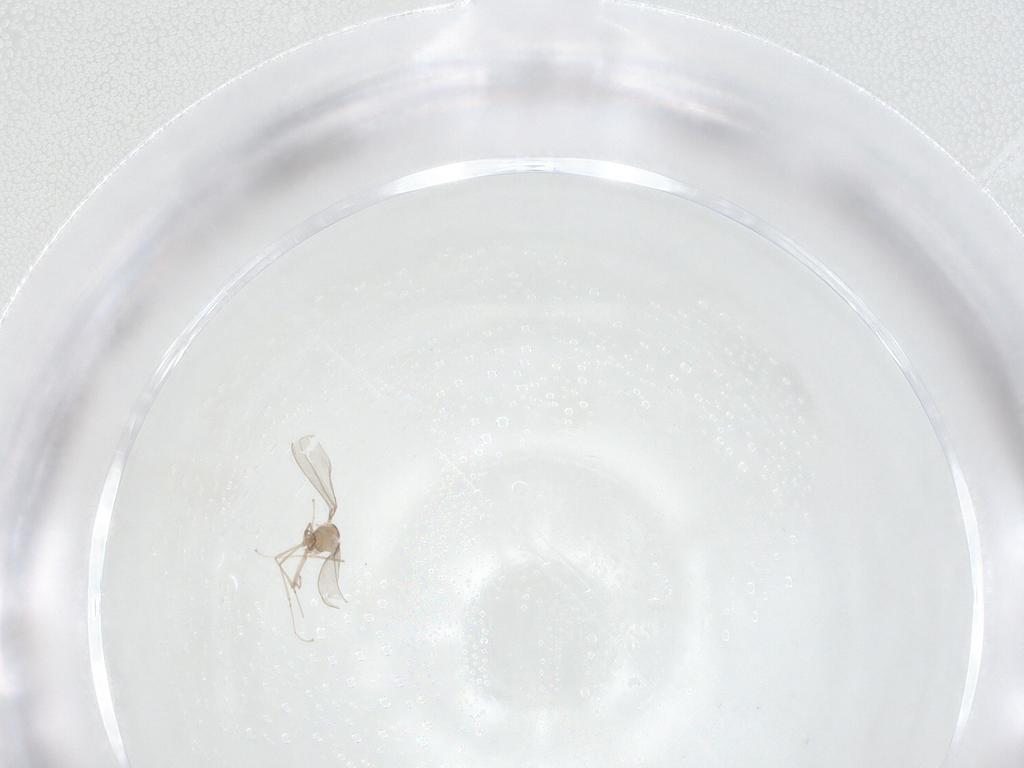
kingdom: Animalia
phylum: Arthropoda
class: Insecta
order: Diptera
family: Cecidomyiidae
